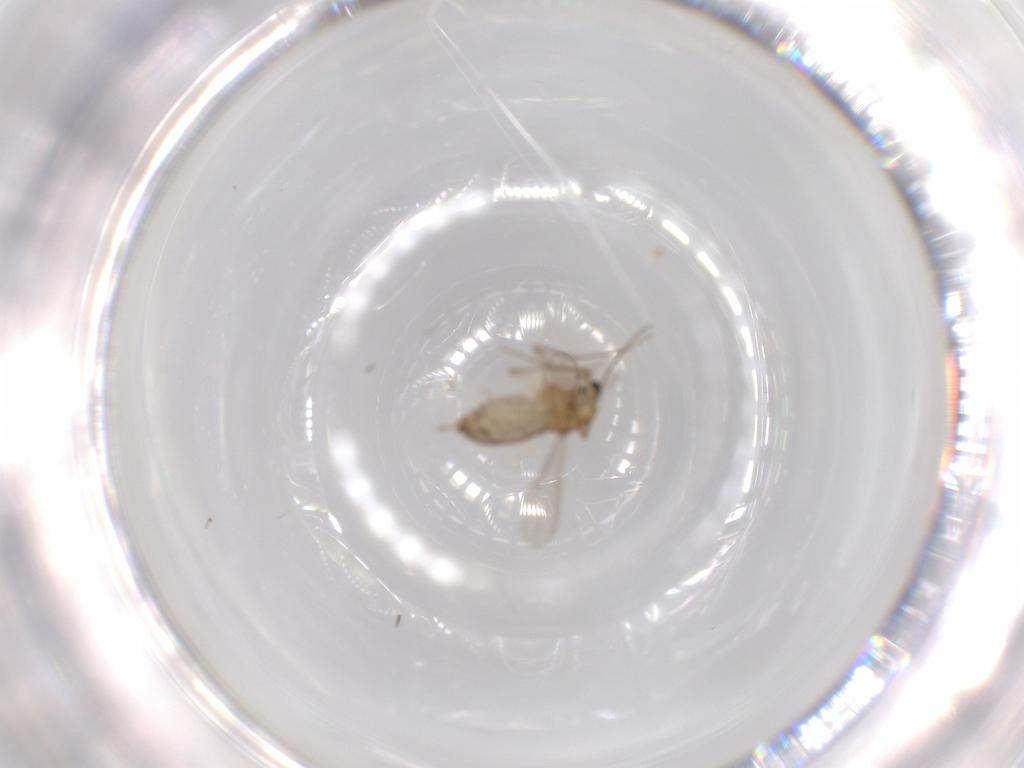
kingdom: Animalia
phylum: Arthropoda
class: Insecta
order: Diptera
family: Chironomidae
